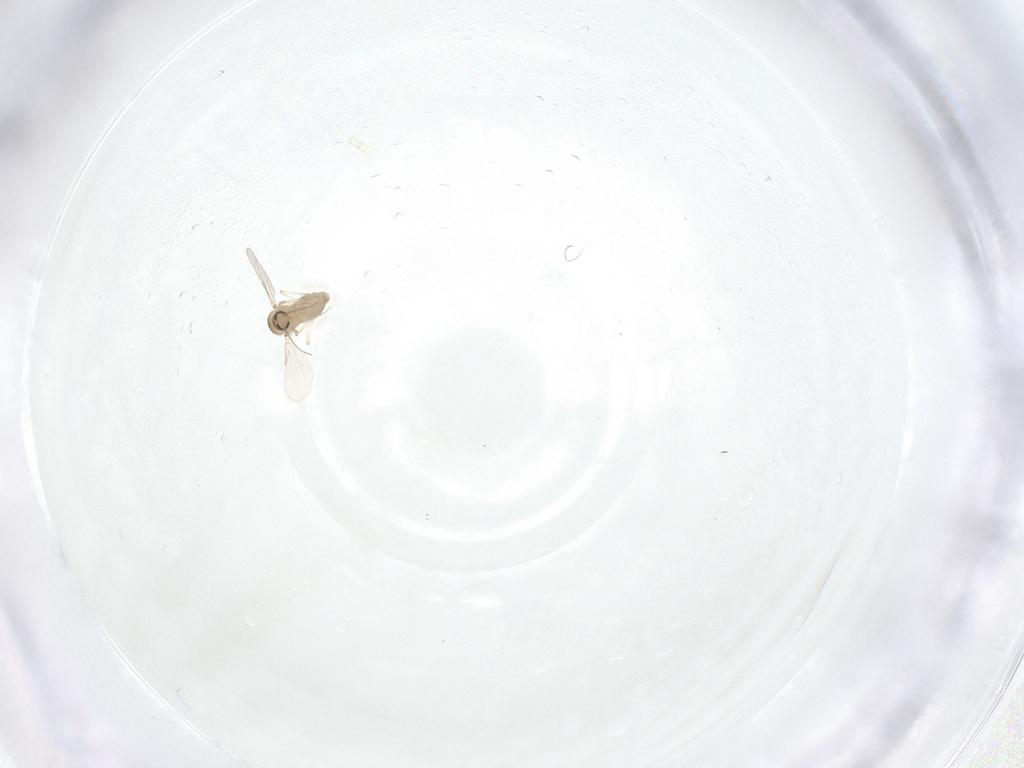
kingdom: Animalia
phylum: Arthropoda
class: Insecta
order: Diptera
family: Ceratopogonidae
